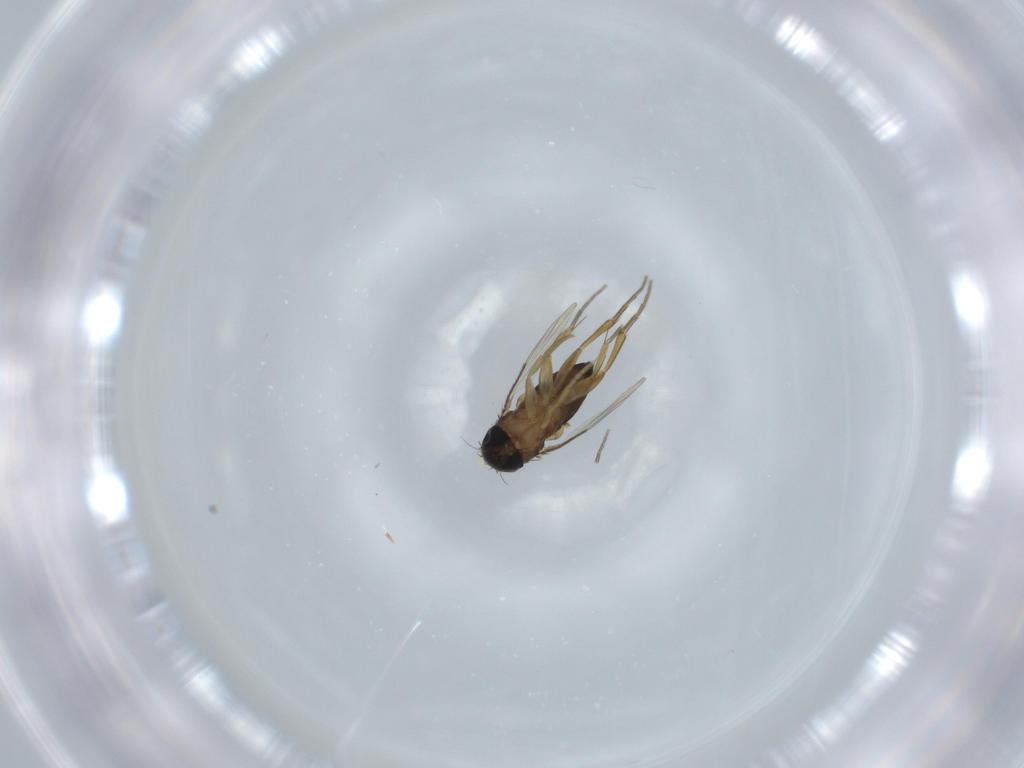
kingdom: Animalia
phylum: Arthropoda
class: Insecta
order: Diptera
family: Phoridae
